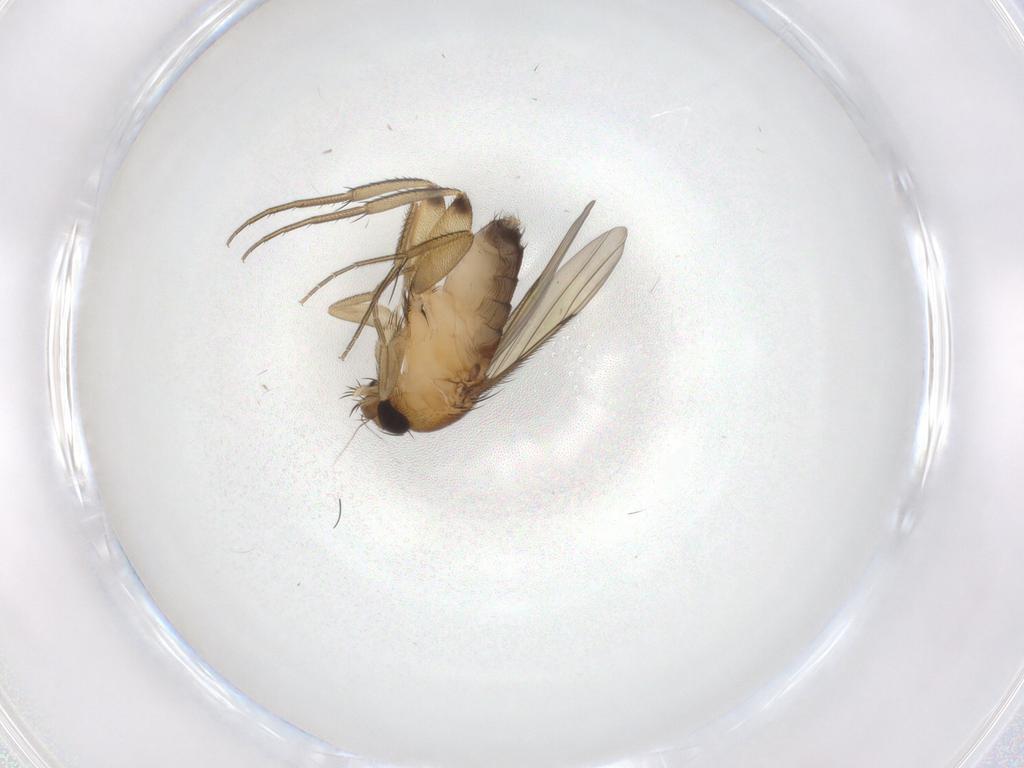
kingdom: Animalia
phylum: Arthropoda
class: Insecta
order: Diptera
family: Phoridae
